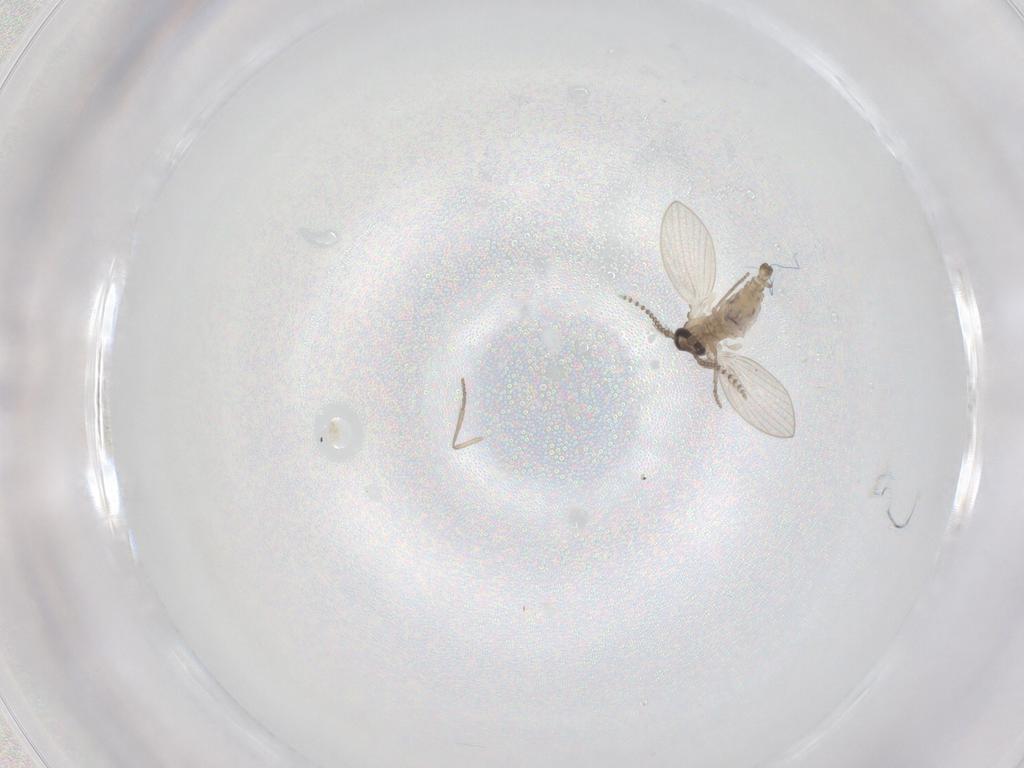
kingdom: Animalia
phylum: Arthropoda
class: Insecta
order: Diptera
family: Psychodidae
